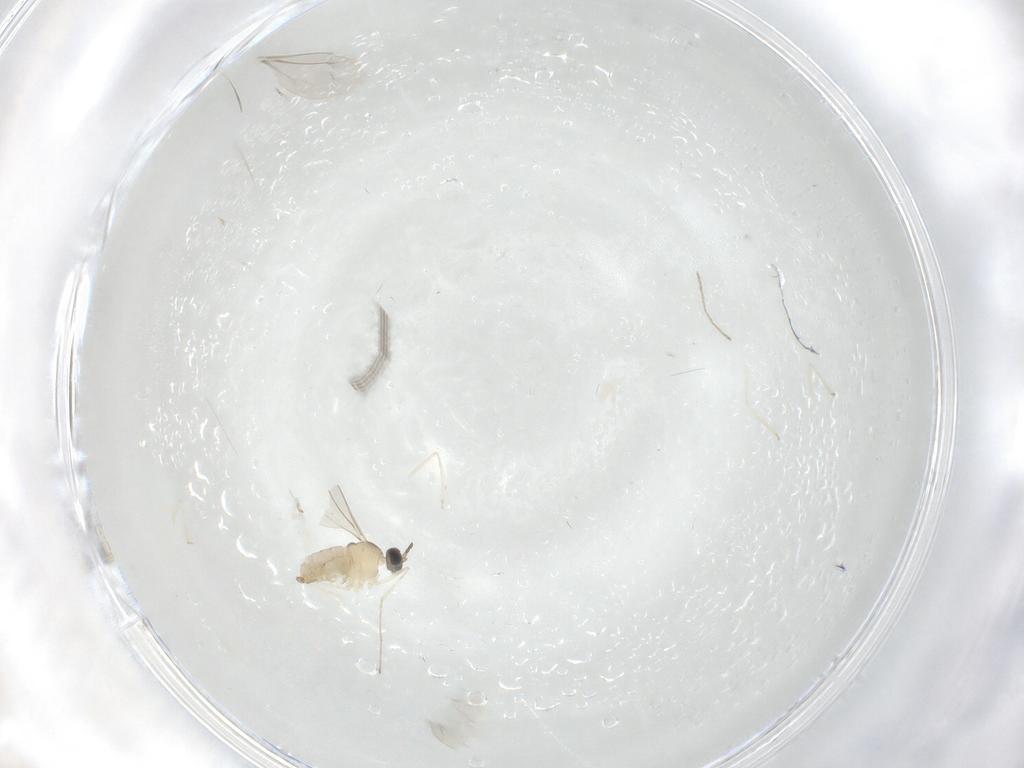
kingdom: Animalia
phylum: Arthropoda
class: Insecta
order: Diptera
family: Cecidomyiidae
